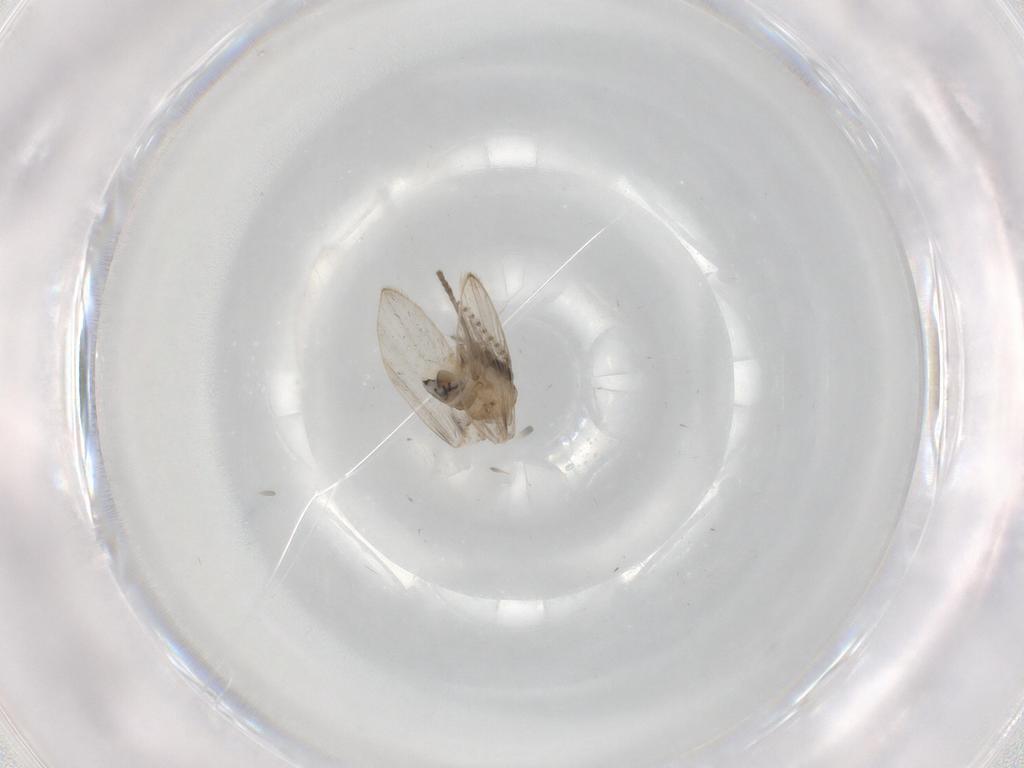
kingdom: Animalia
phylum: Arthropoda
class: Insecta
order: Diptera
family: Psychodidae
